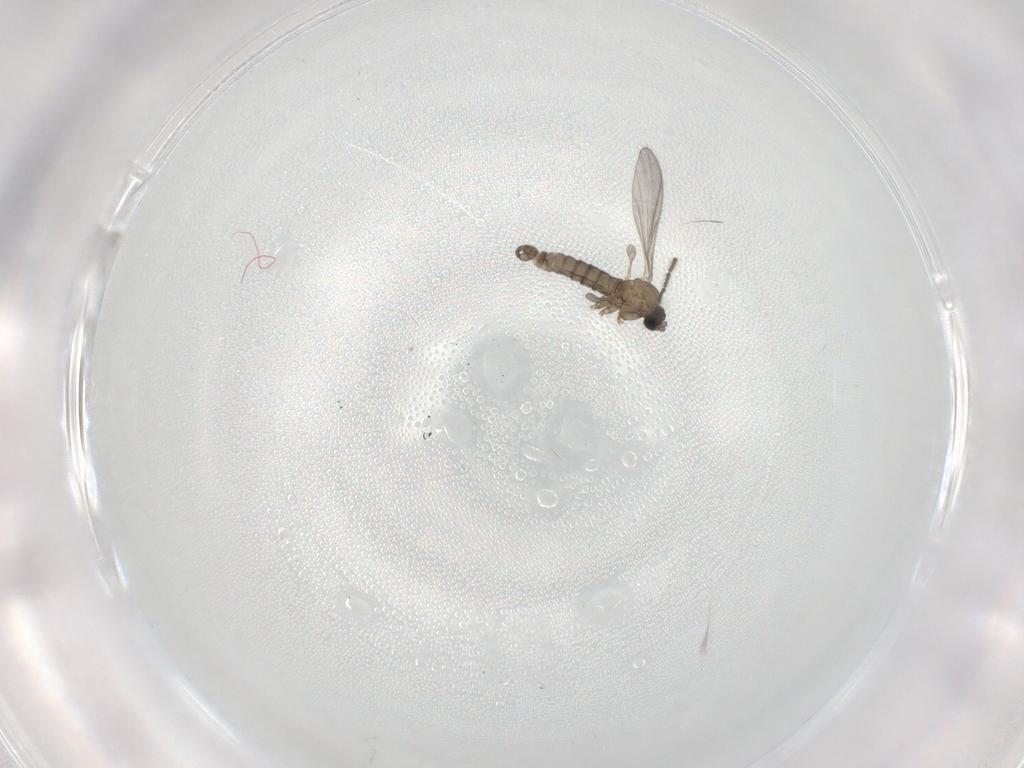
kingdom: Animalia
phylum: Arthropoda
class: Insecta
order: Diptera
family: Sciaridae
